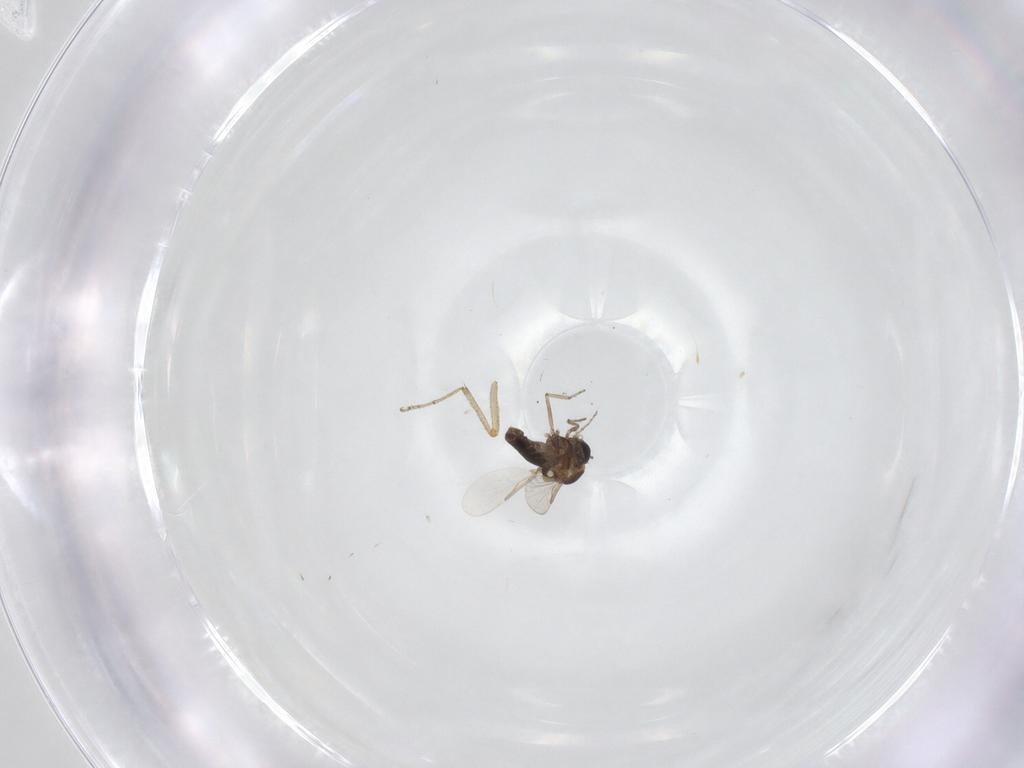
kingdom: Animalia
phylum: Arthropoda
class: Insecta
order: Diptera
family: Ceratopogonidae
